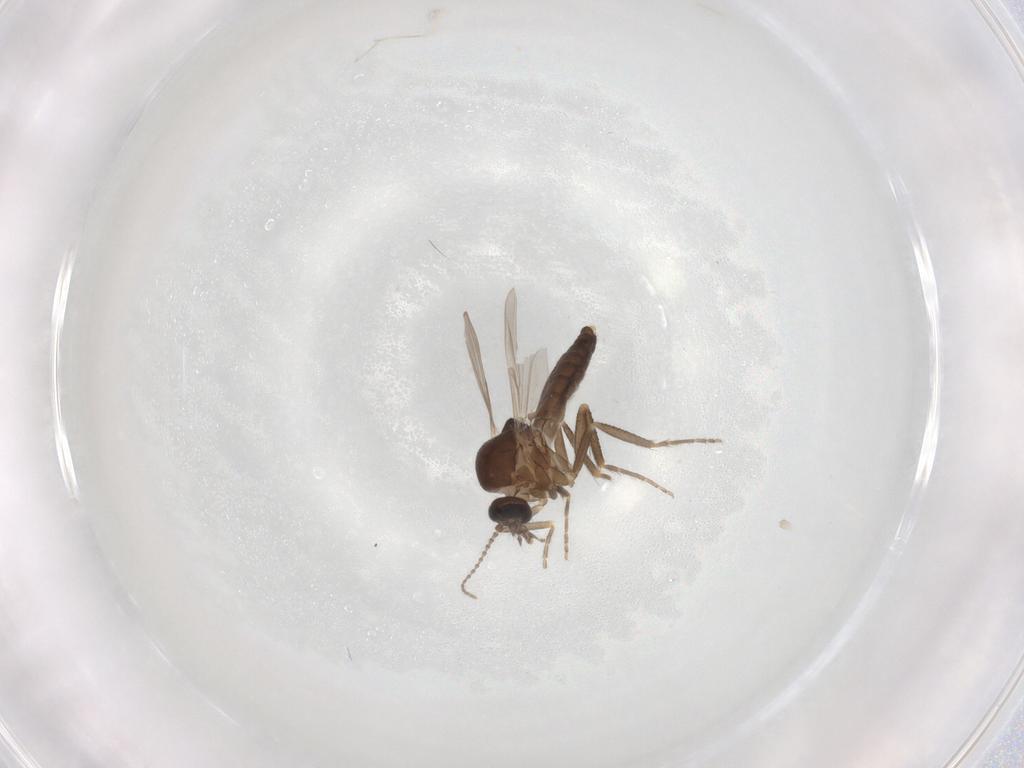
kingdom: Animalia
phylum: Arthropoda
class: Insecta
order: Diptera
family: Ceratopogonidae
